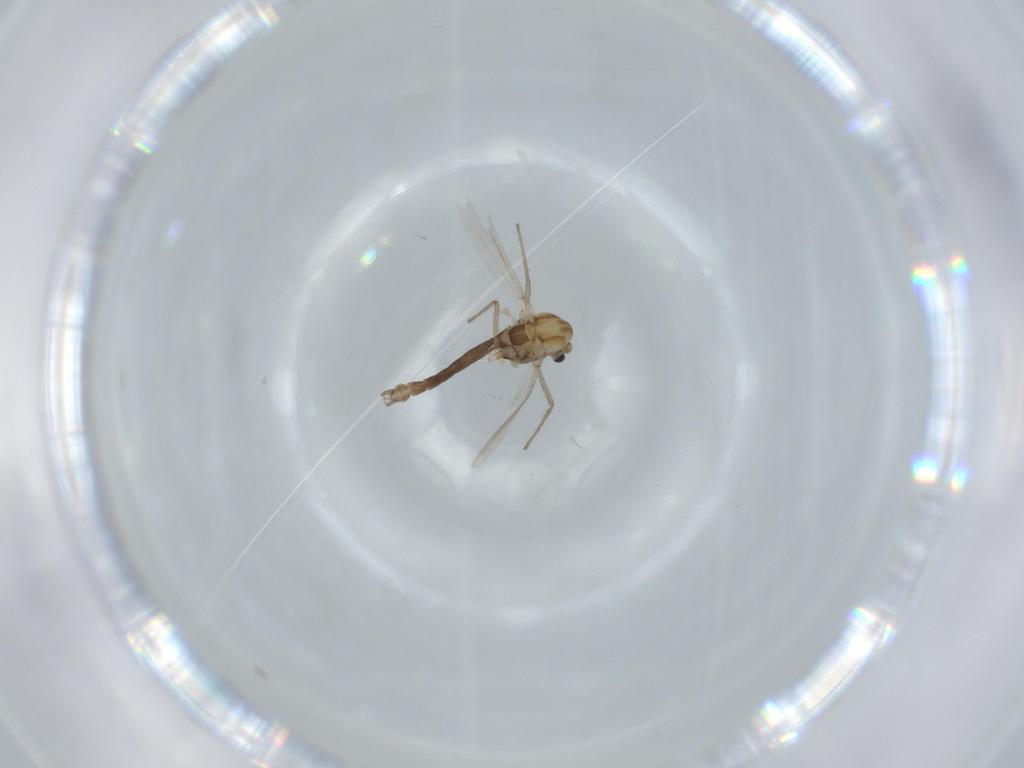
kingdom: Animalia
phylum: Arthropoda
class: Insecta
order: Diptera
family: Chironomidae
